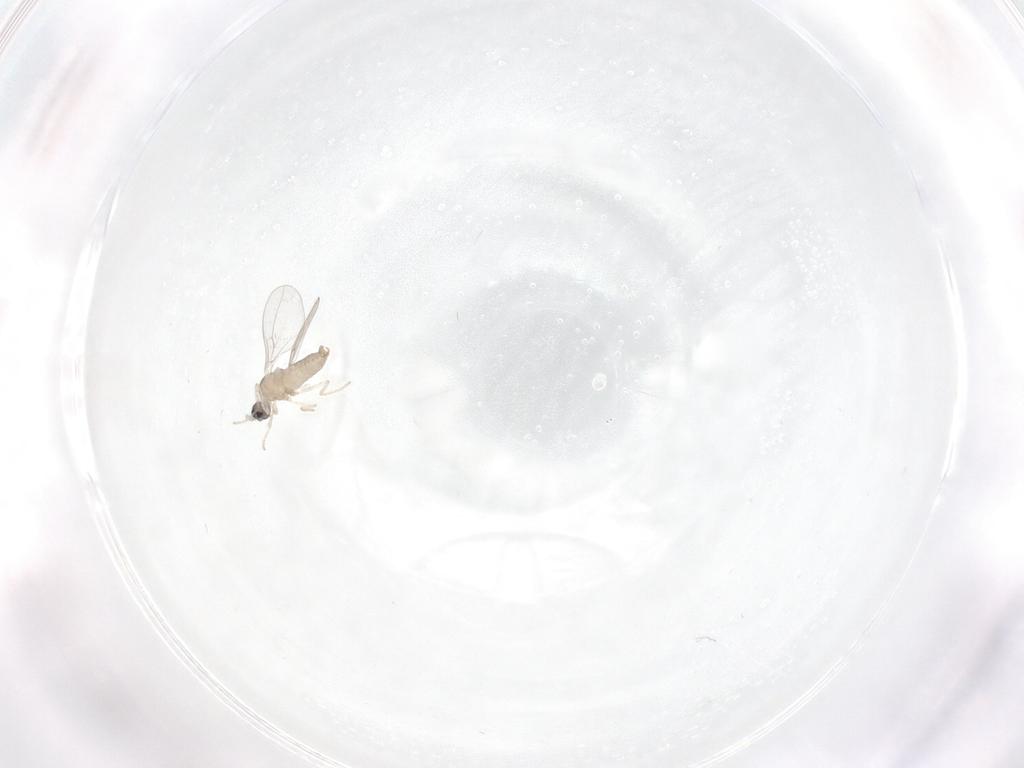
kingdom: Animalia
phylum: Arthropoda
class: Insecta
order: Diptera
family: Cecidomyiidae
